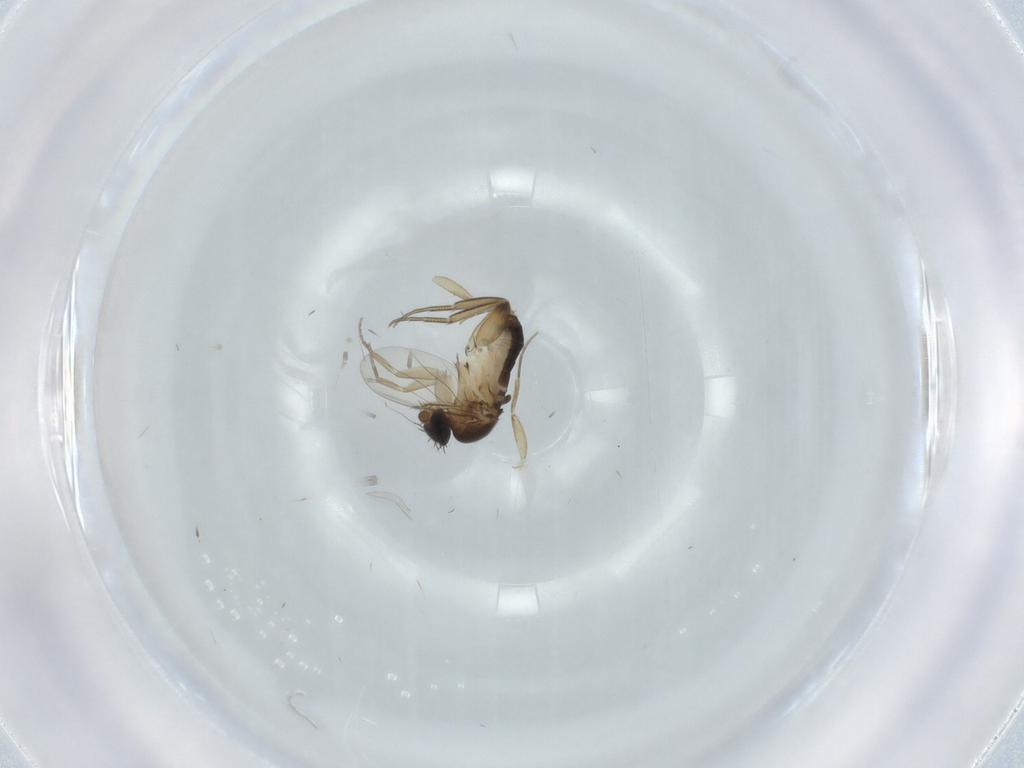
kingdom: Animalia
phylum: Arthropoda
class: Insecta
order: Diptera
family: Phoridae
